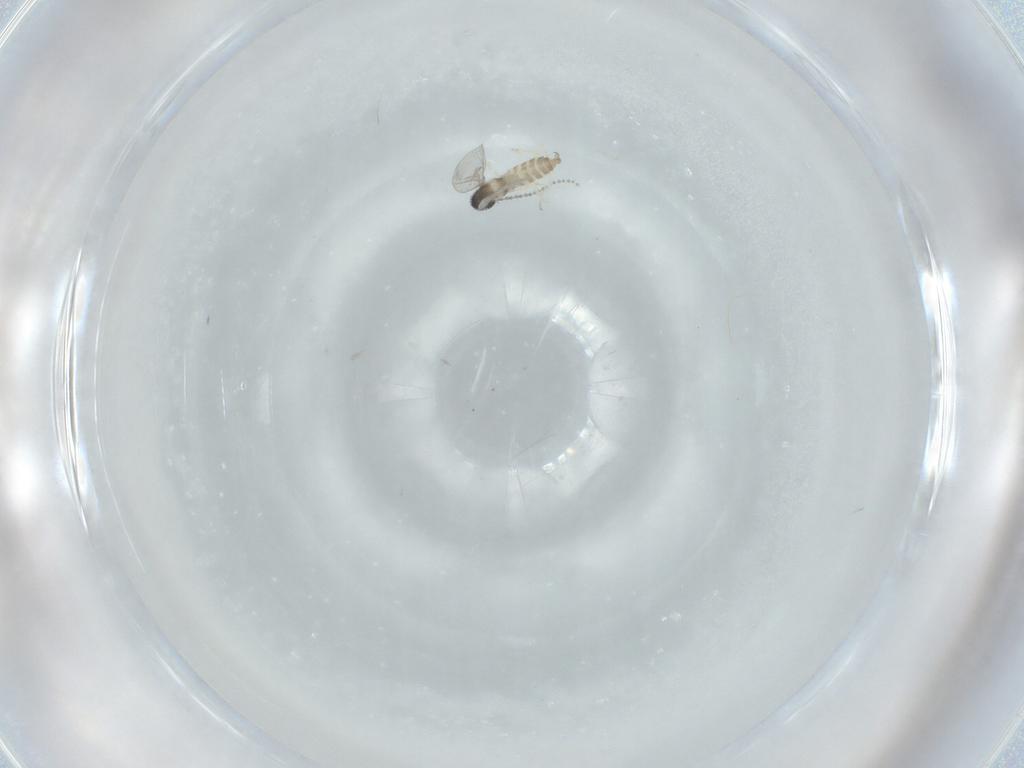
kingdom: Animalia
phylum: Arthropoda
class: Insecta
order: Diptera
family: Cecidomyiidae
